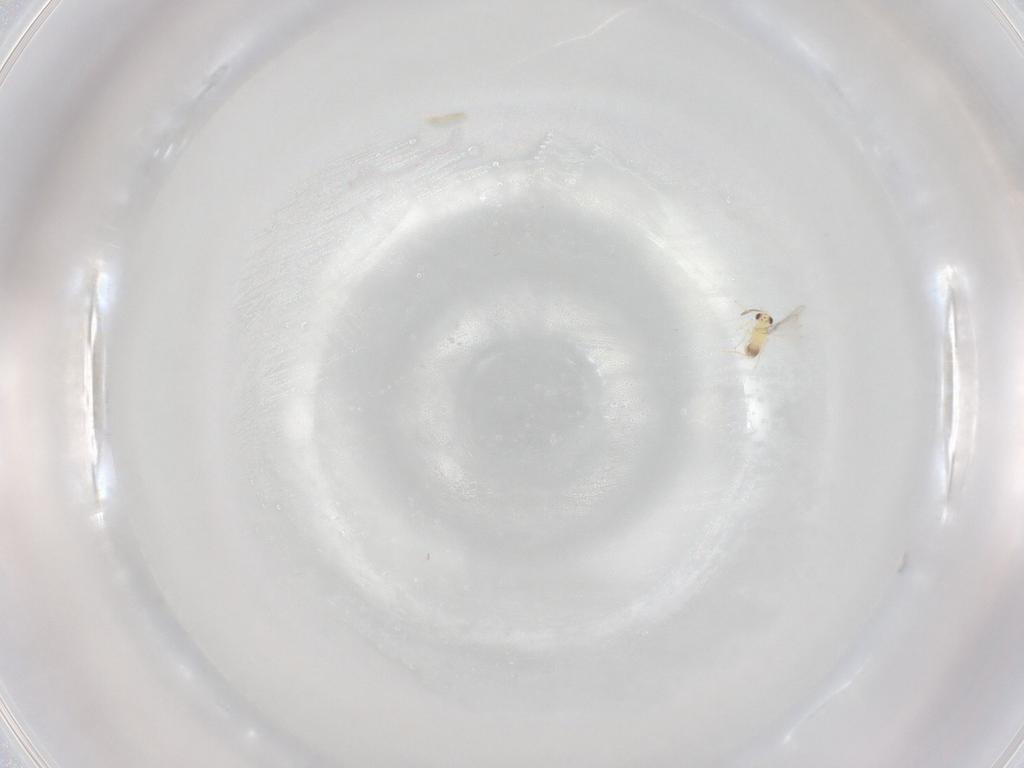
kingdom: Animalia
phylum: Arthropoda
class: Insecta
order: Hymenoptera
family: Mymaridae
